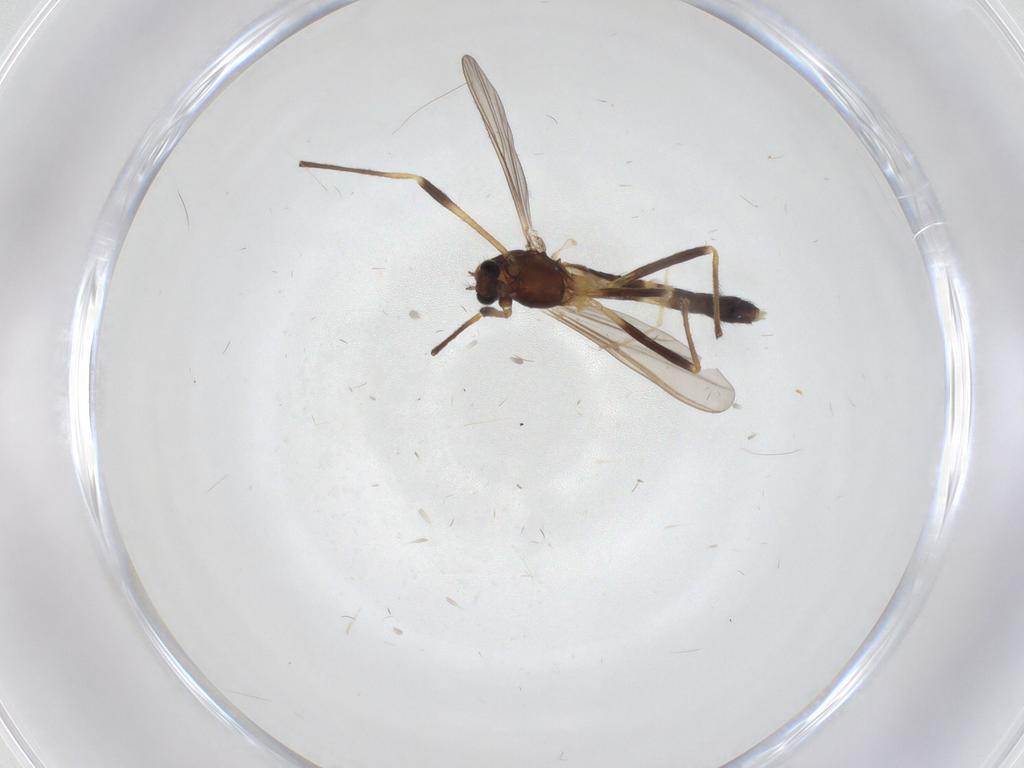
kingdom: Animalia
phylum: Arthropoda
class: Insecta
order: Diptera
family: Chironomidae
